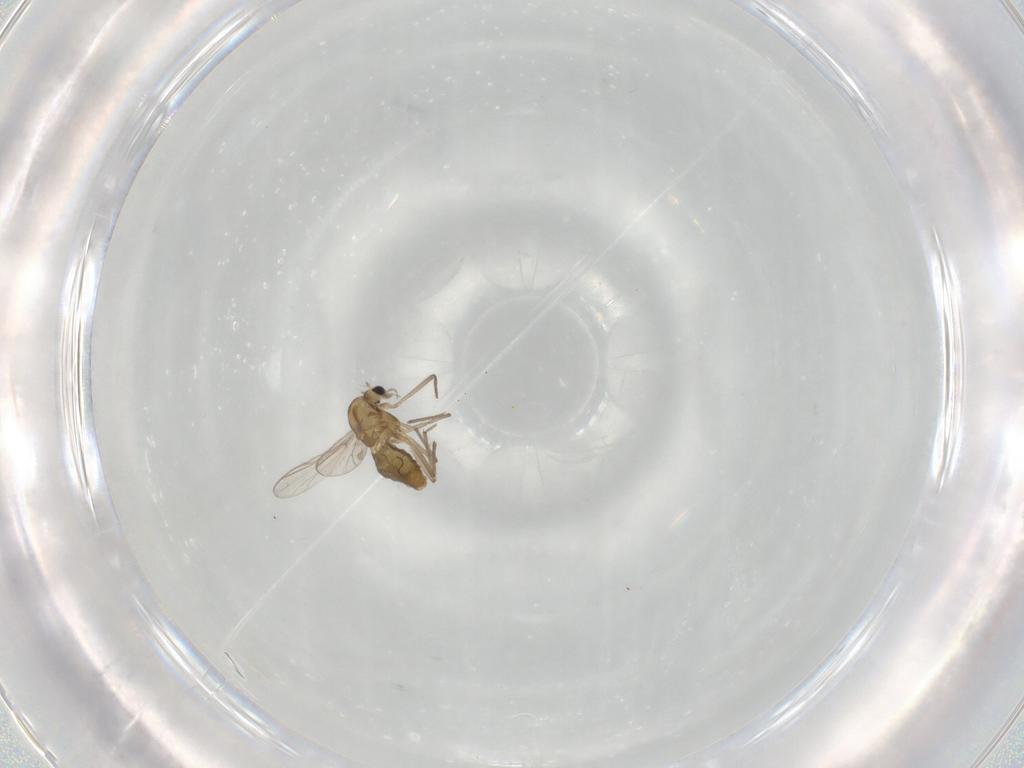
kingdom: Animalia
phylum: Arthropoda
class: Insecta
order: Diptera
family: Chironomidae
